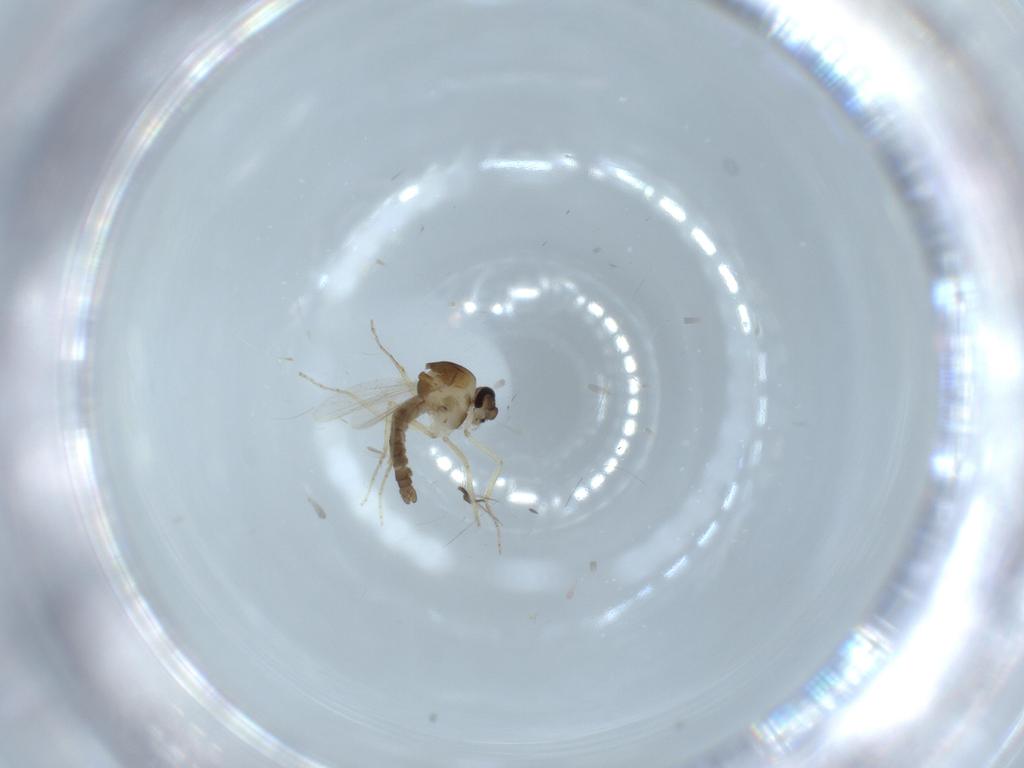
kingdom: Animalia
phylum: Arthropoda
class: Insecta
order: Diptera
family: Ceratopogonidae
